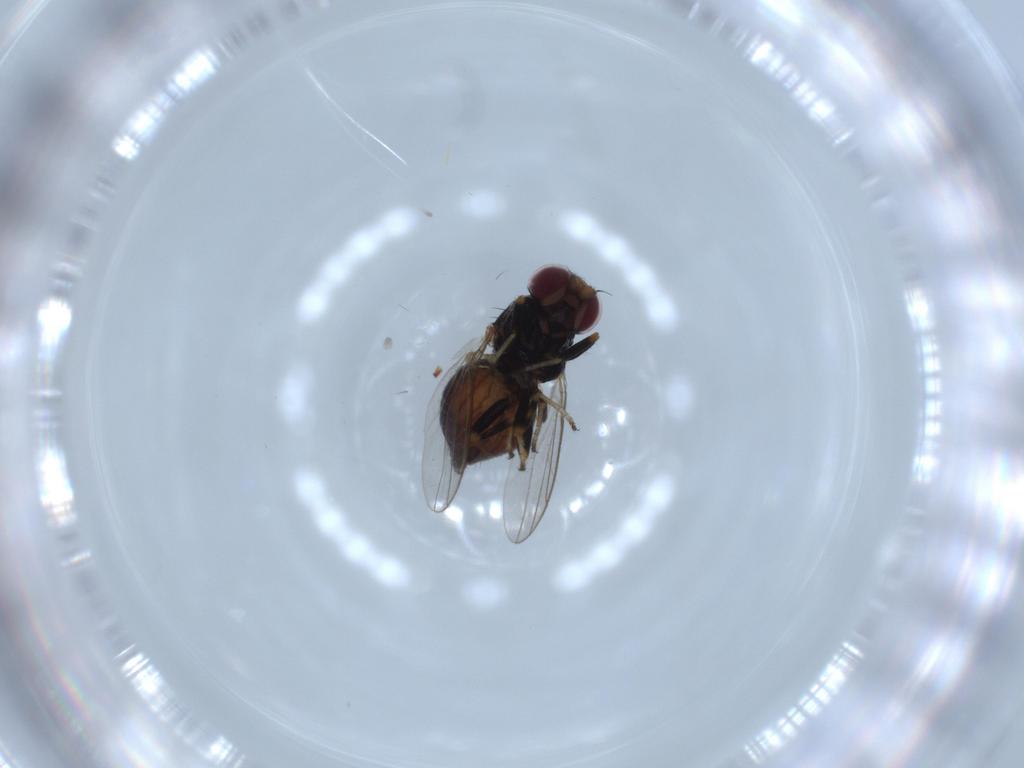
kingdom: Animalia
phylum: Arthropoda
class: Insecta
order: Diptera
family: Chloropidae
